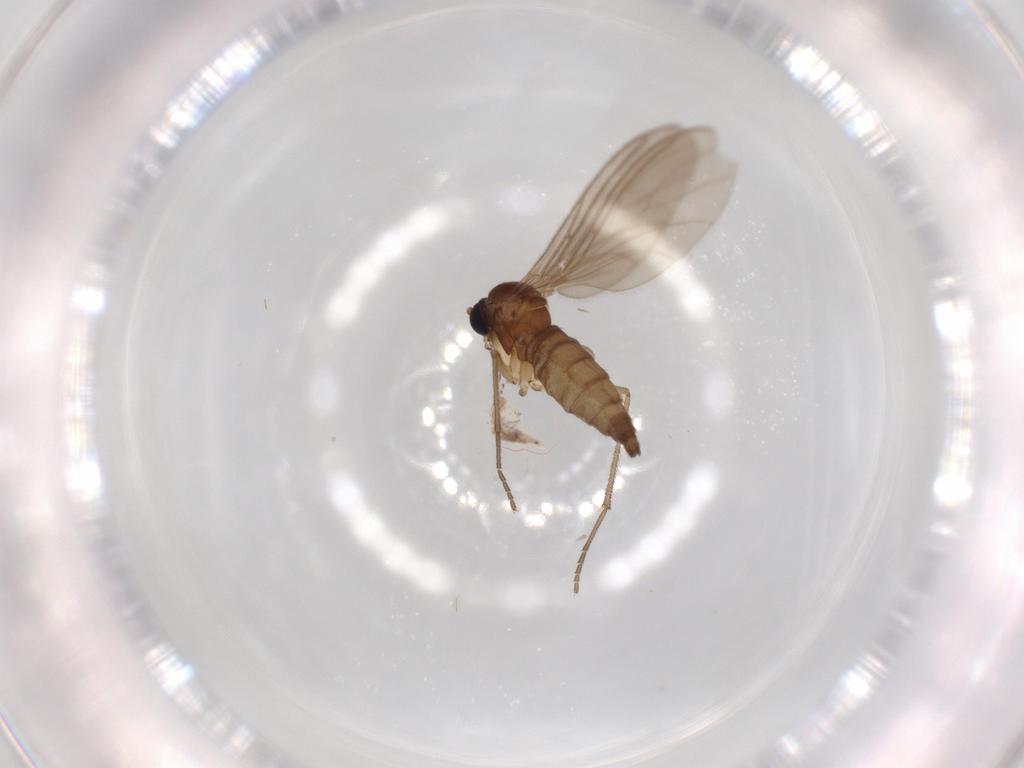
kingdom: Animalia
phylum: Arthropoda
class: Collembola
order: Entomobryomorpha
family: Entomobryidae
